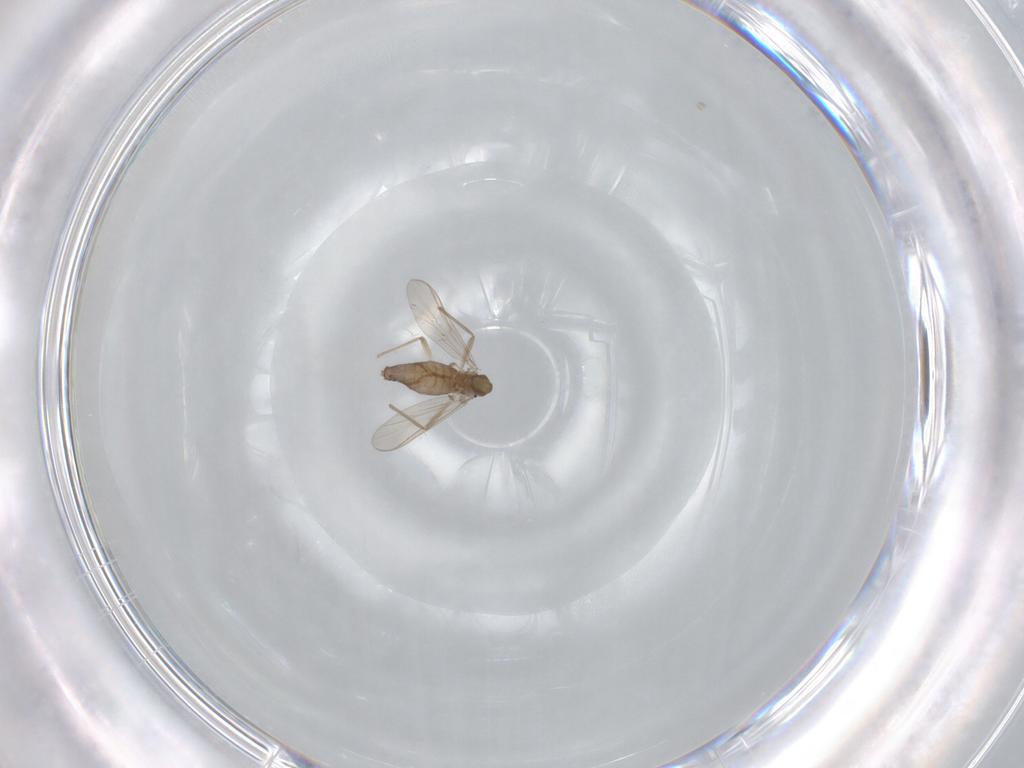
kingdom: Animalia
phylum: Arthropoda
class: Insecta
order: Diptera
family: Chironomidae
